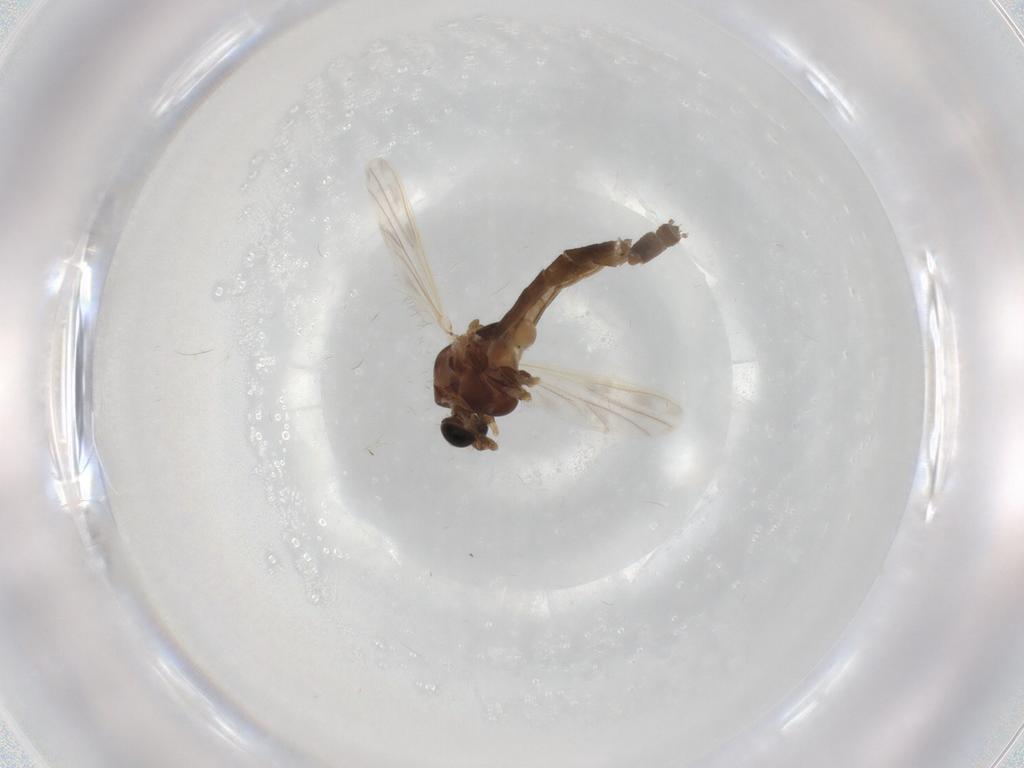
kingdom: Animalia
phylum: Arthropoda
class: Insecta
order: Diptera
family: Chironomidae
